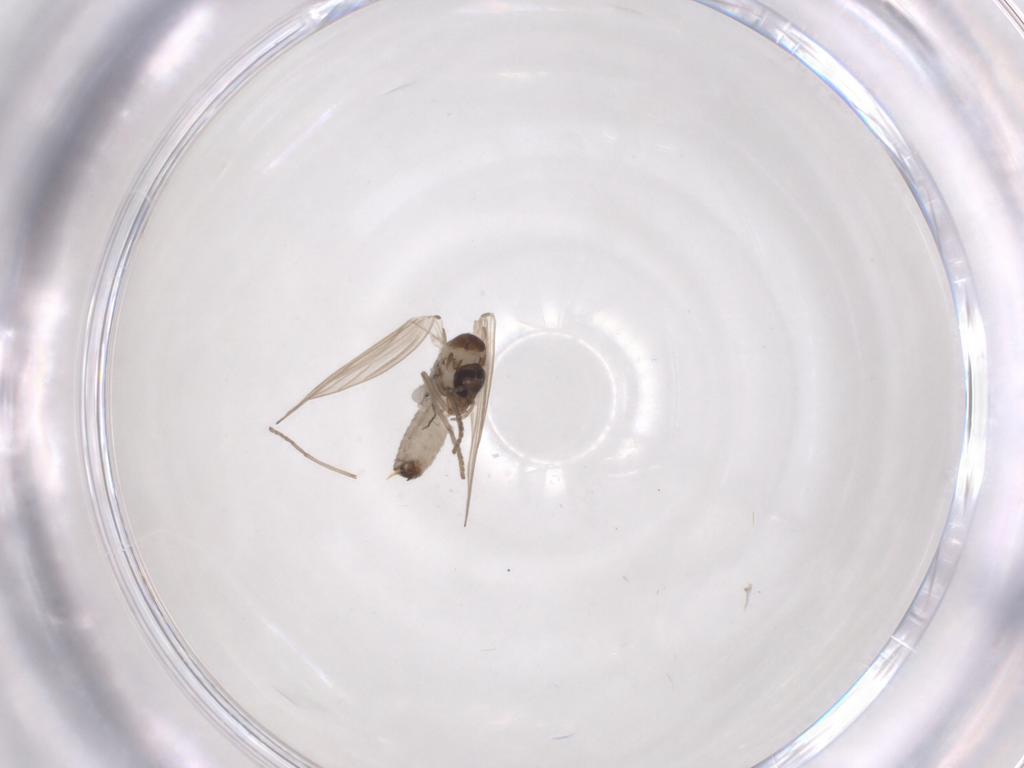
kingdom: Animalia
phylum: Arthropoda
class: Insecta
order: Diptera
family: Psychodidae
